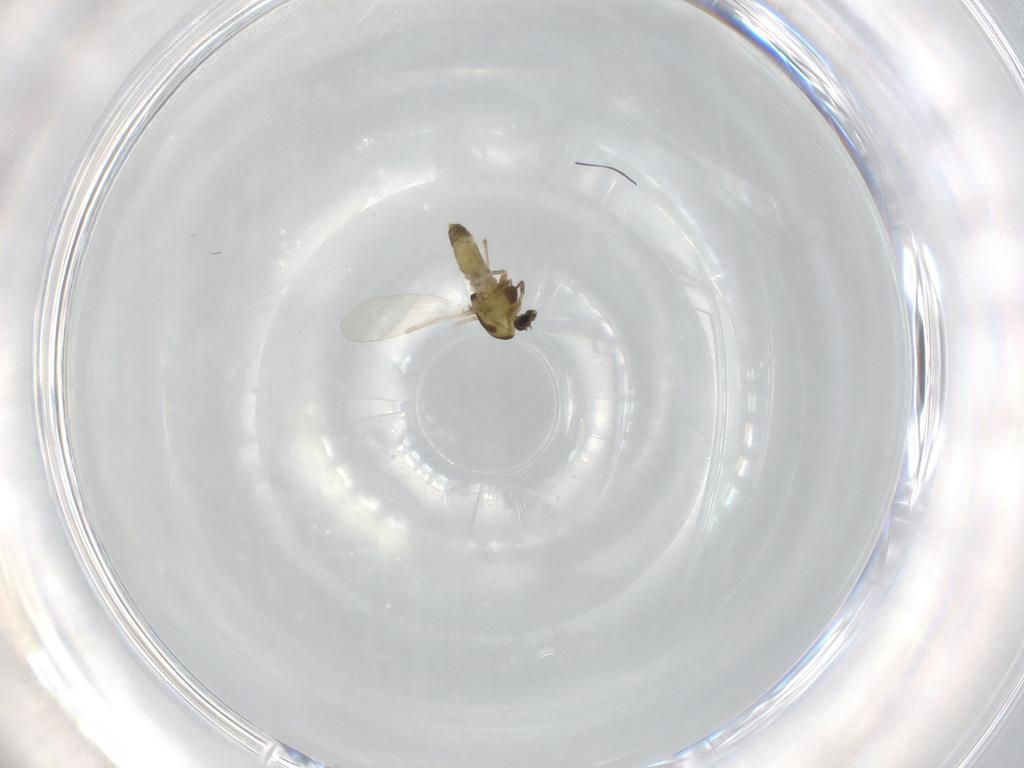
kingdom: Animalia
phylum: Arthropoda
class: Insecta
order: Diptera
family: Chironomidae
